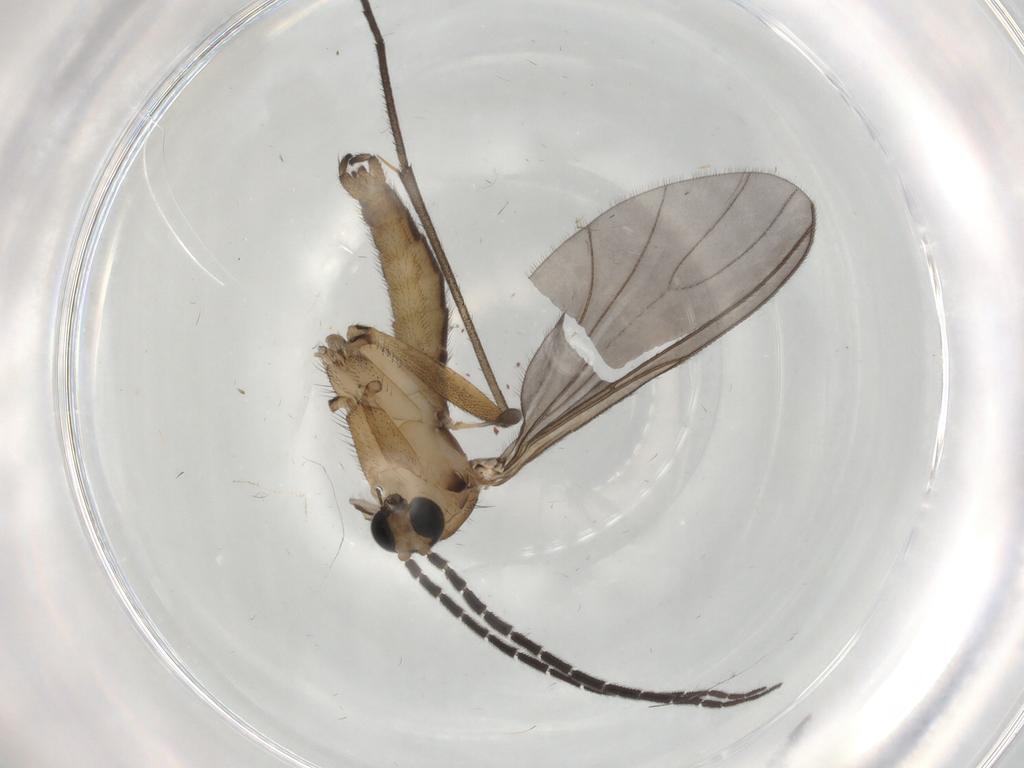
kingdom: Animalia
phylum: Arthropoda
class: Insecta
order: Diptera
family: Sciaridae
